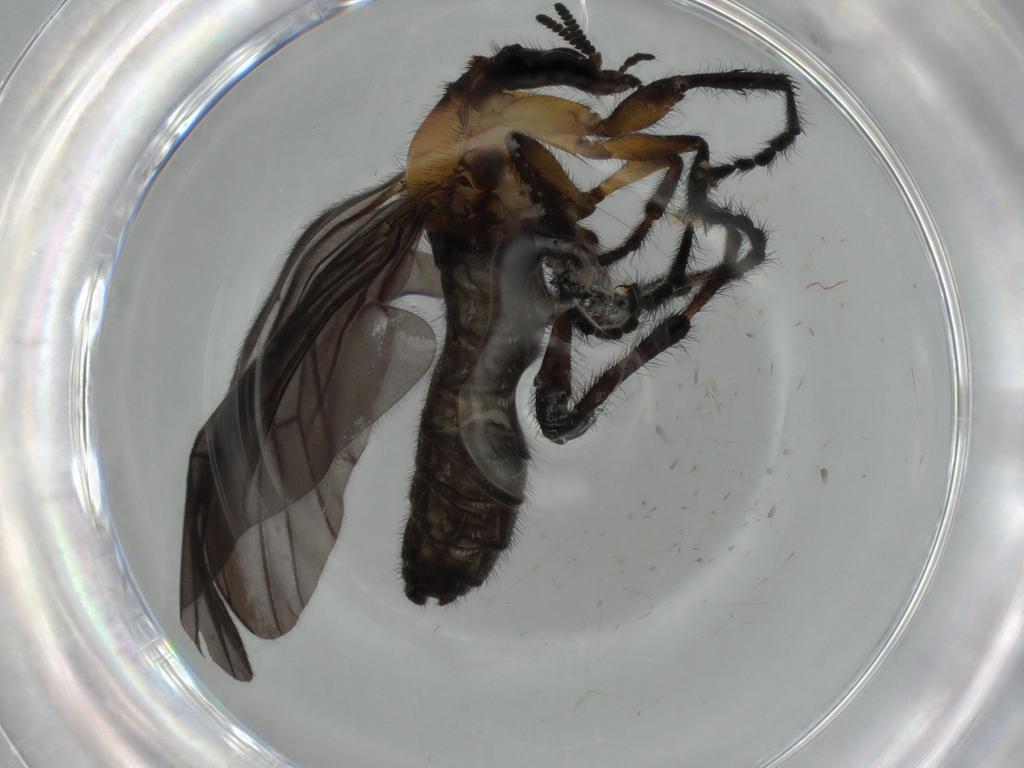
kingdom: Animalia
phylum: Arthropoda
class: Insecta
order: Diptera
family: Bibionidae
